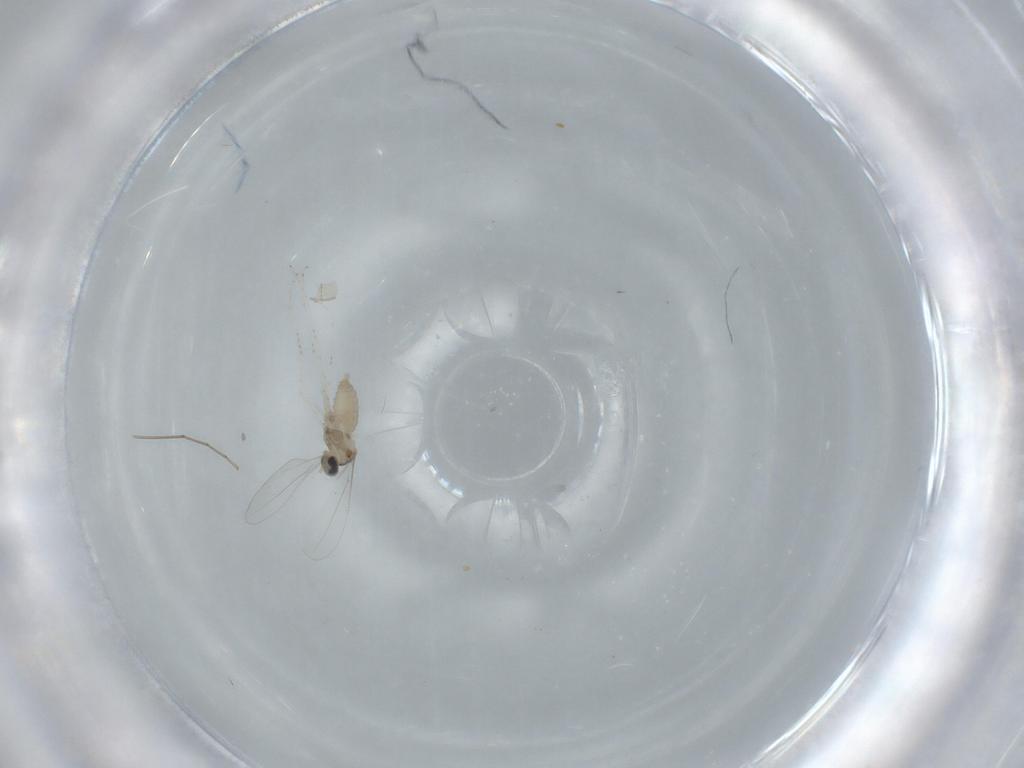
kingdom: Animalia
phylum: Arthropoda
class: Insecta
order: Diptera
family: Cecidomyiidae
